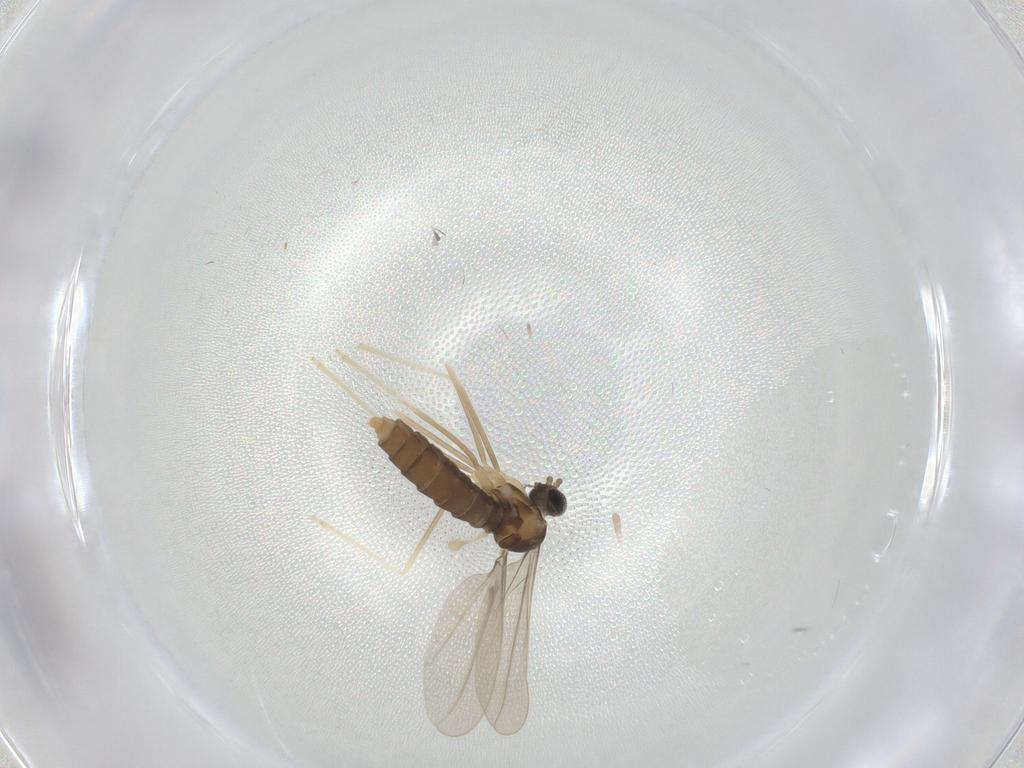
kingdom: Animalia
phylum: Arthropoda
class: Insecta
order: Diptera
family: Cecidomyiidae
